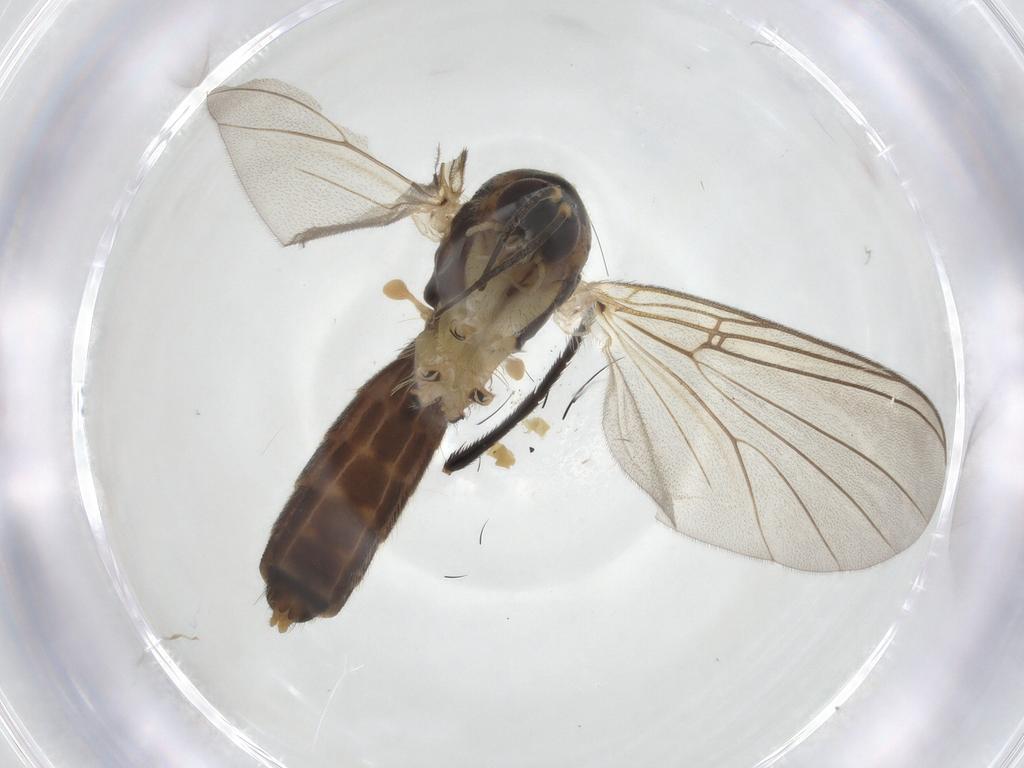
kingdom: Animalia
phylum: Arthropoda
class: Insecta
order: Diptera
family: Mycetophilidae
